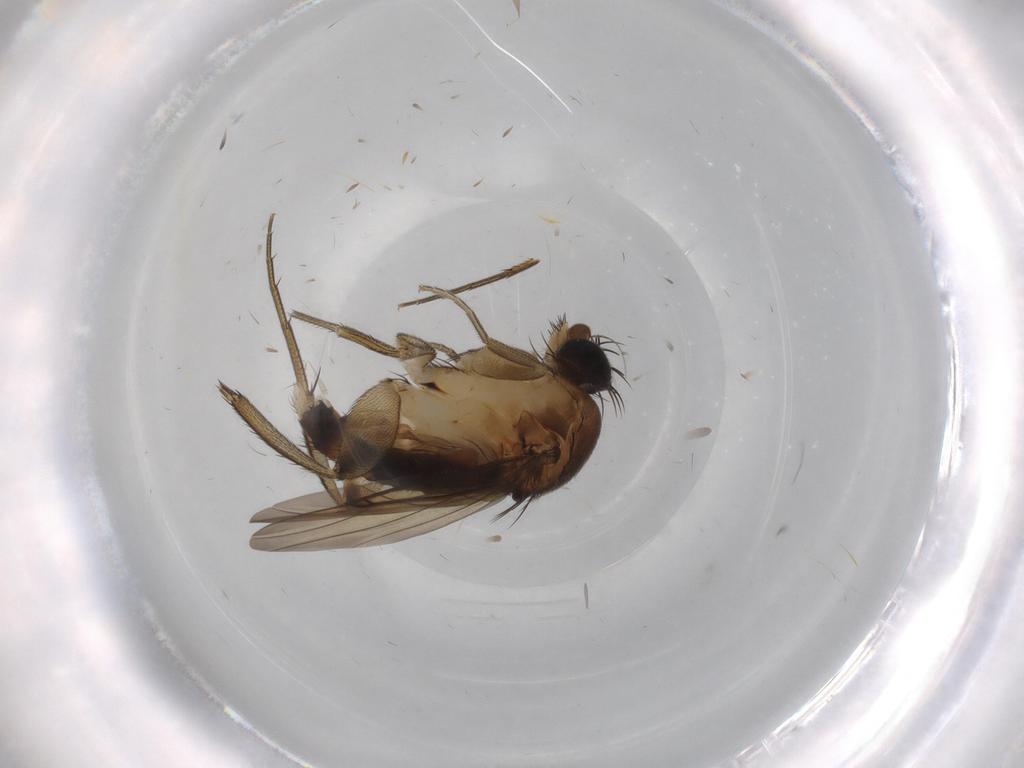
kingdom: Animalia
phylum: Arthropoda
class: Insecta
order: Diptera
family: Phoridae
